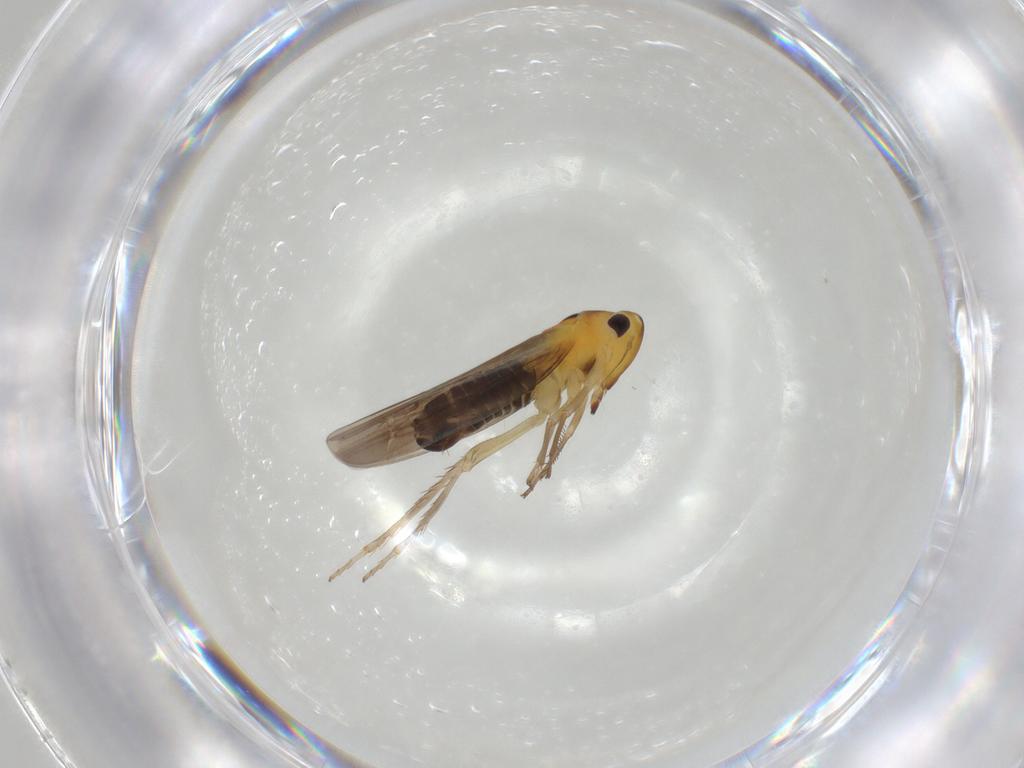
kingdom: Animalia
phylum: Arthropoda
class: Insecta
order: Hemiptera
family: Cicadellidae
